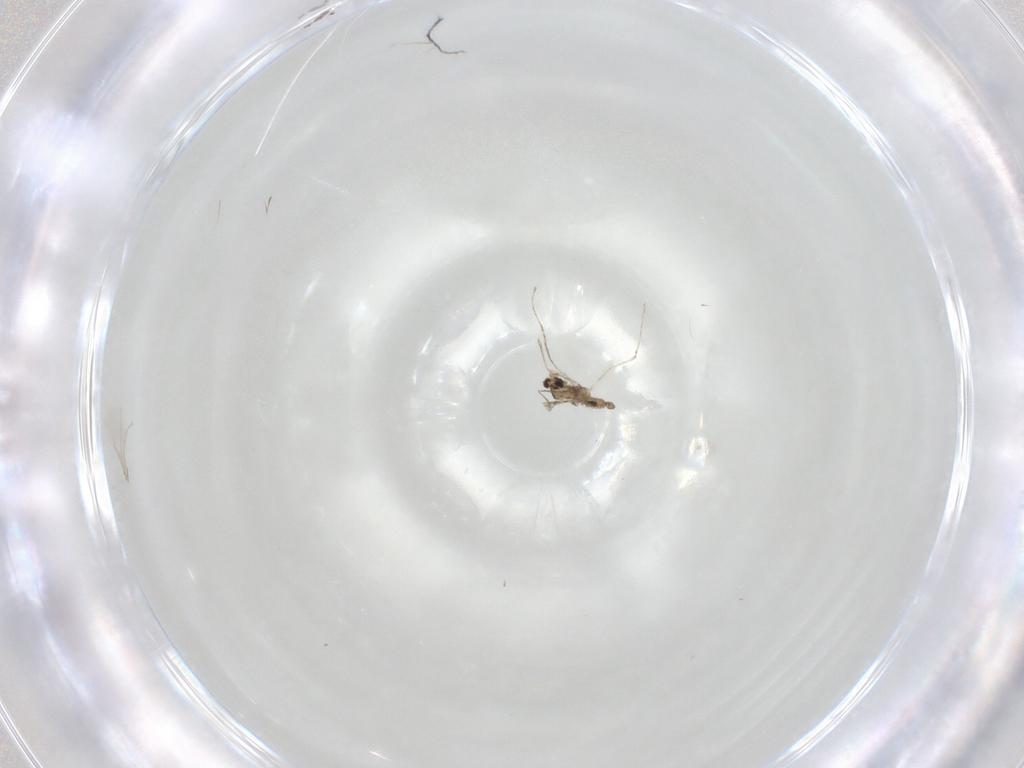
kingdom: Animalia
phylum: Arthropoda
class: Insecta
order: Diptera
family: Cecidomyiidae
